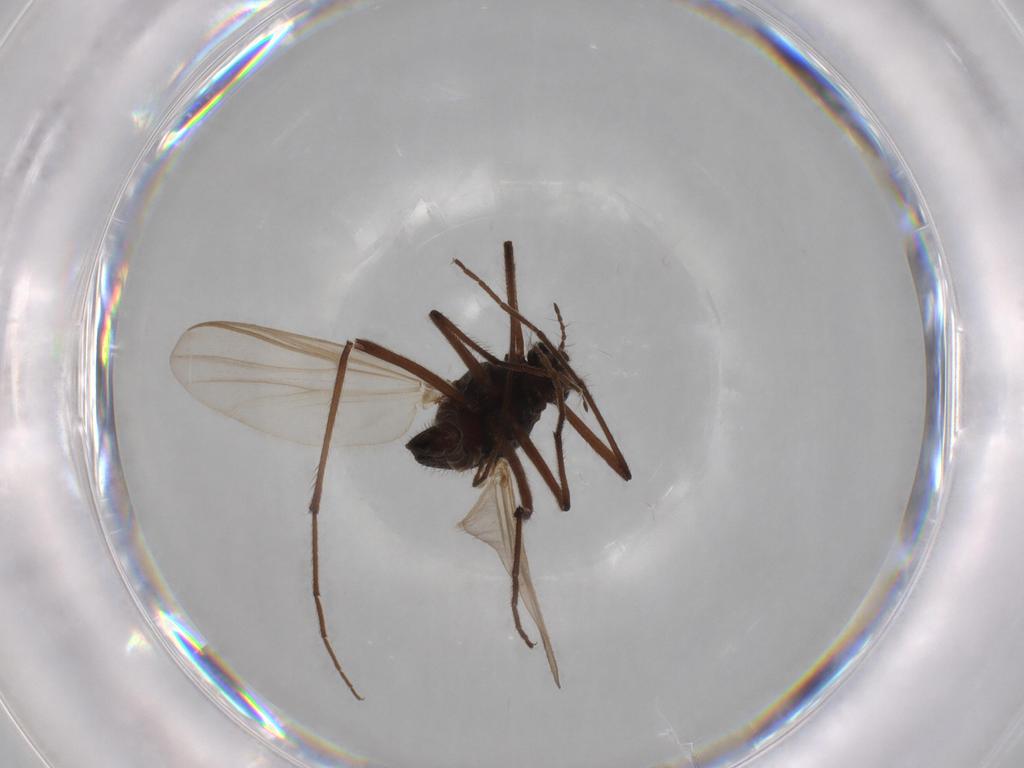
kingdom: Animalia
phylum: Arthropoda
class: Insecta
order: Diptera
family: Polleniidae
